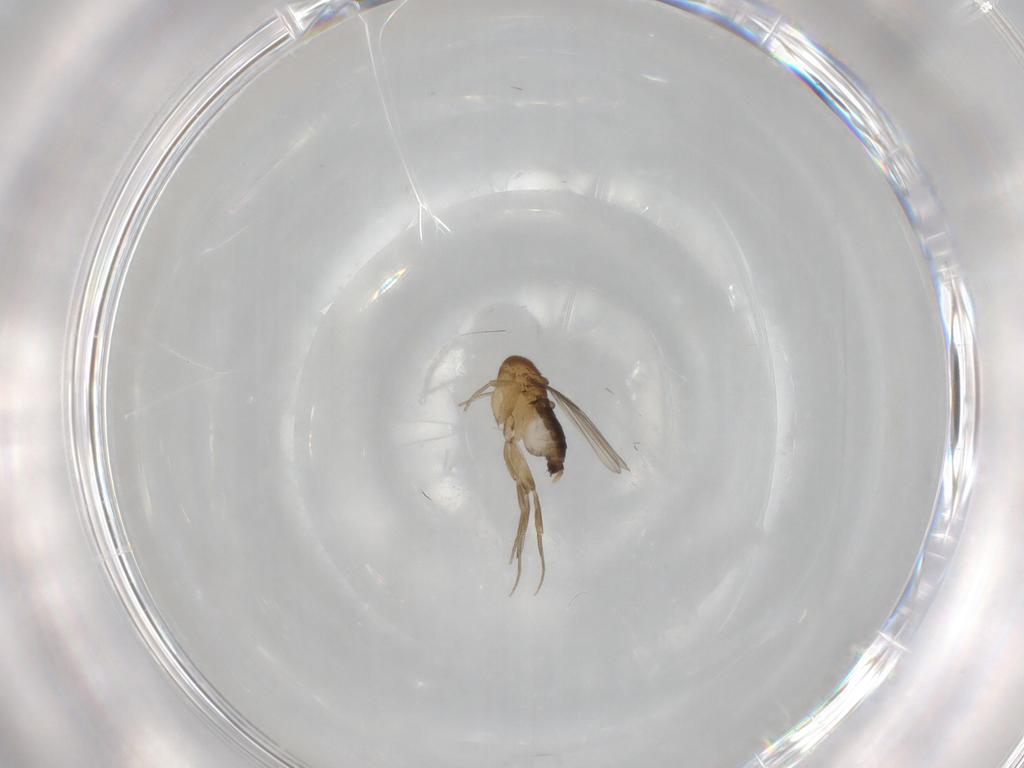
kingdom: Animalia
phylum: Arthropoda
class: Insecta
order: Diptera
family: Phoridae
